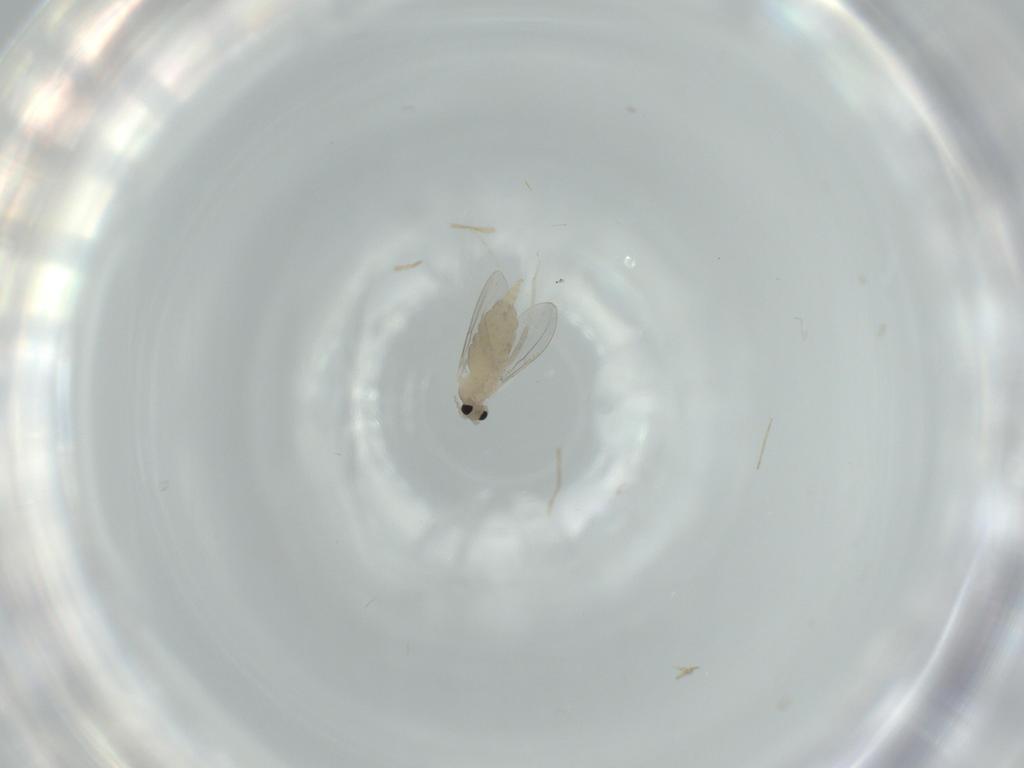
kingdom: Animalia
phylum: Arthropoda
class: Insecta
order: Diptera
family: Cecidomyiidae
